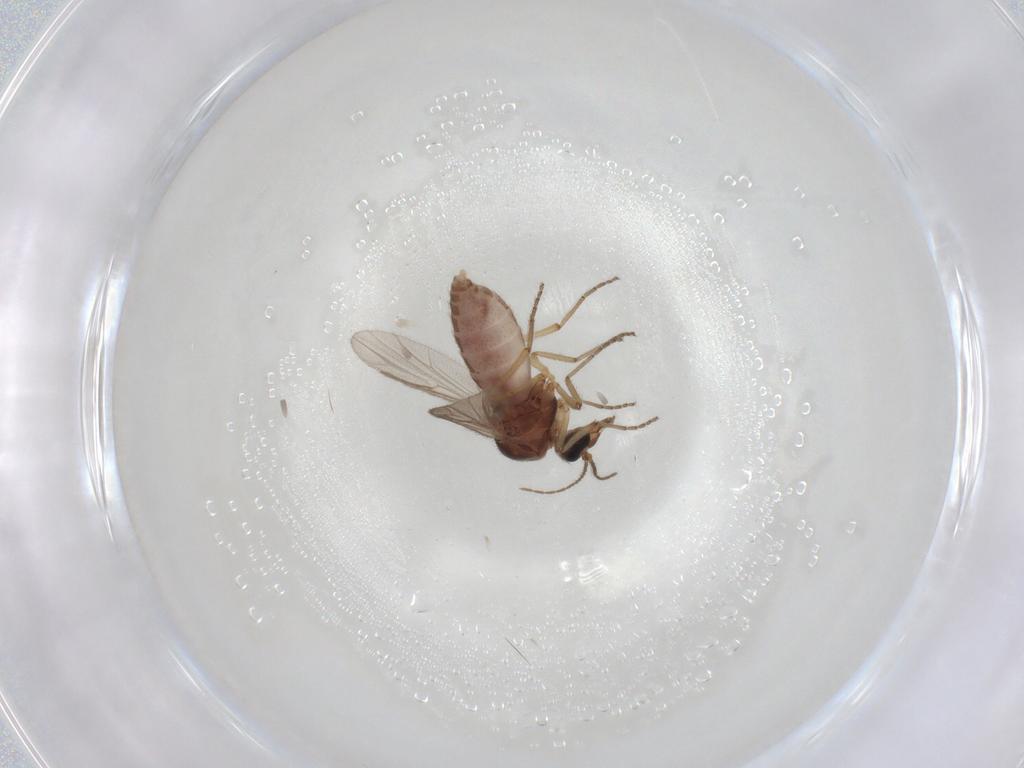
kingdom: Animalia
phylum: Arthropoda
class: Insecta
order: Diptera
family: Ceratopogonidae
